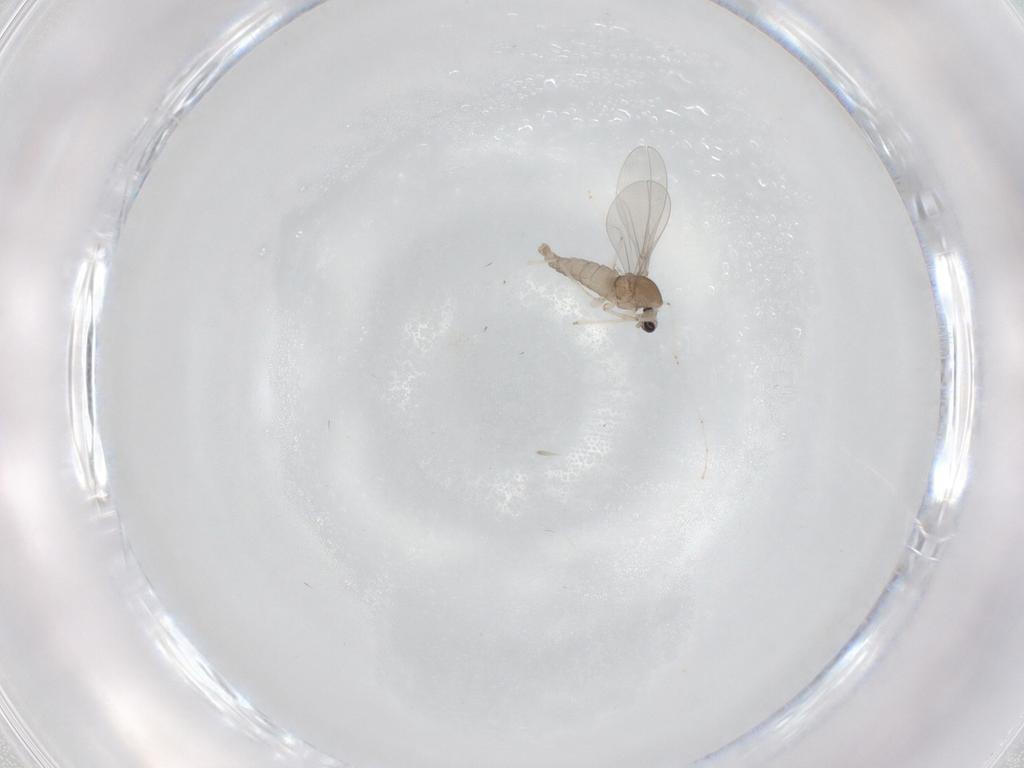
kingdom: Animalia
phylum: Arthropoda
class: Insecta
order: Diptera
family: Cecidomyiidae
